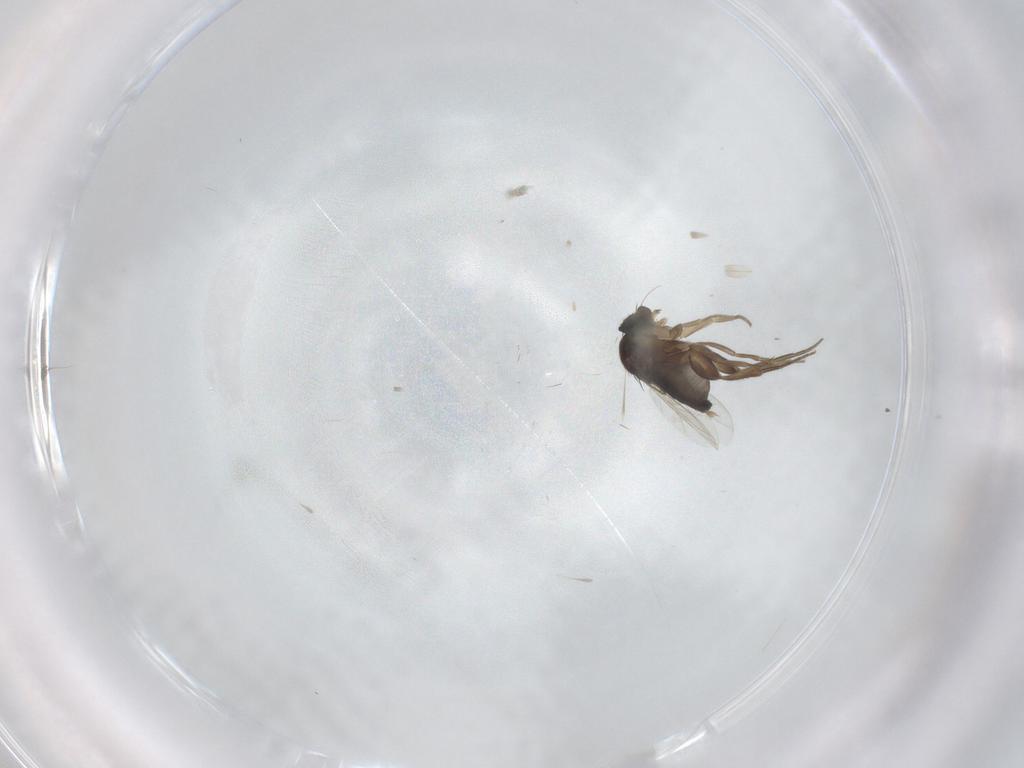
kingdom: Animalia
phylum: Arthropoda
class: Insecta
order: Diptera
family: Phoridae
